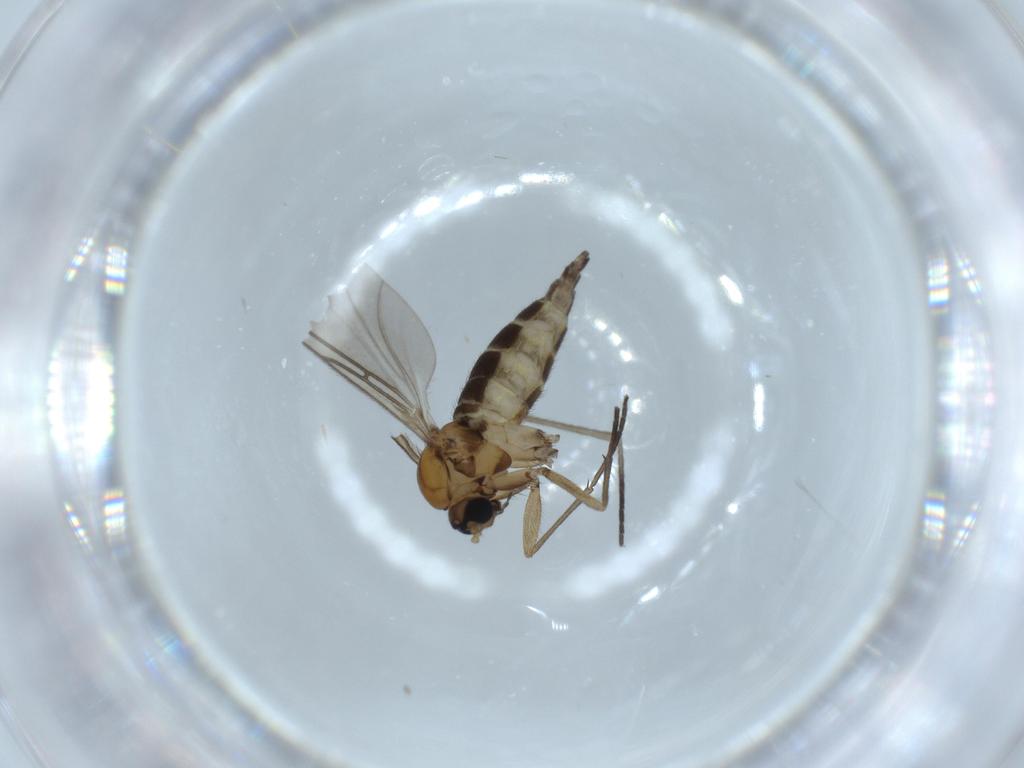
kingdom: Animalia
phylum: Arthropoda
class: Insecta
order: Diptera
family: Sciaridae
